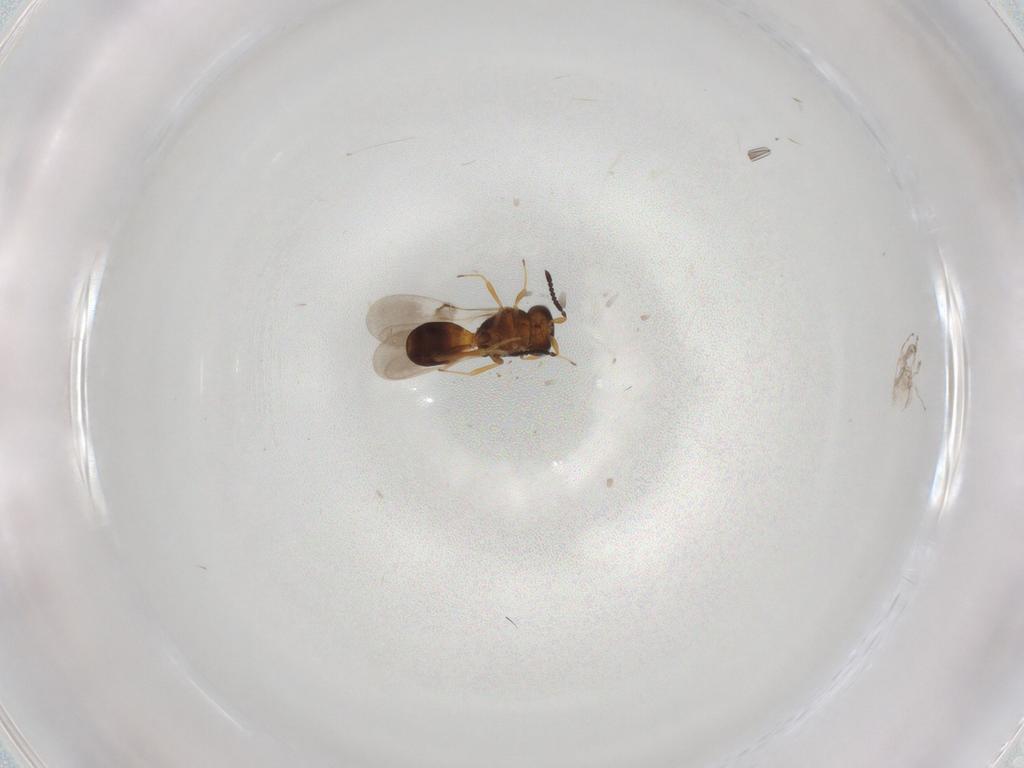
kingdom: Animalia
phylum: Arthropoda
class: Insecta
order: Hymenoptera
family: Scelionidae
